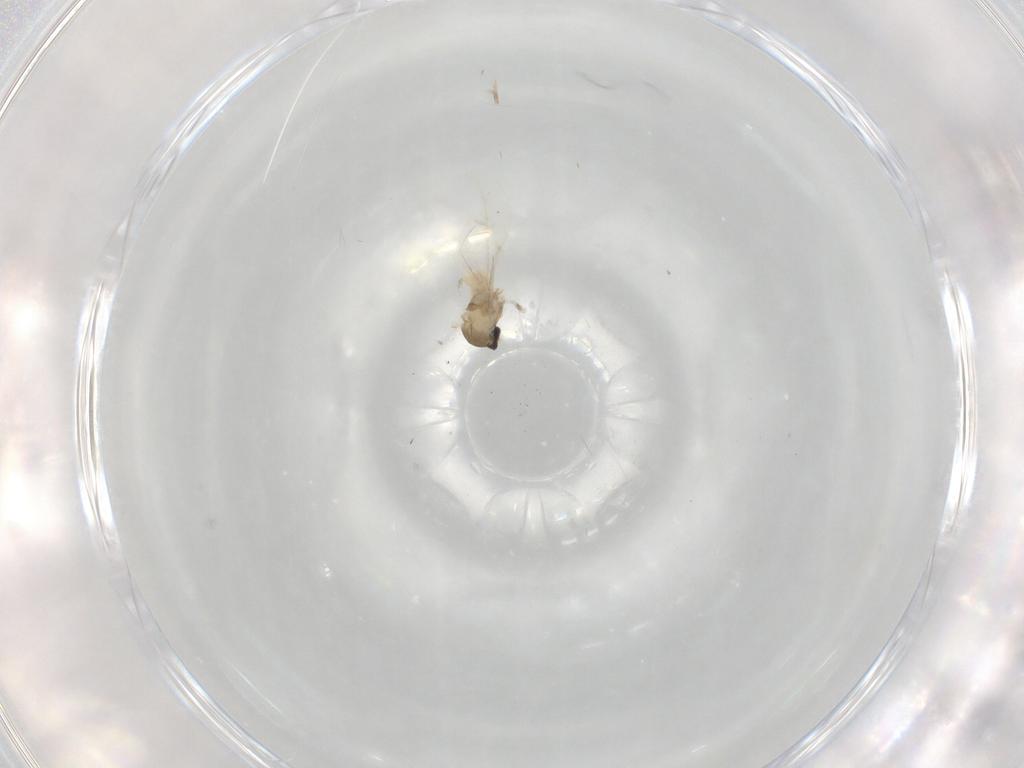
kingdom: Animalia
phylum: Arthropoda
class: Insecta
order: Diptera
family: Cecidomyiidae
